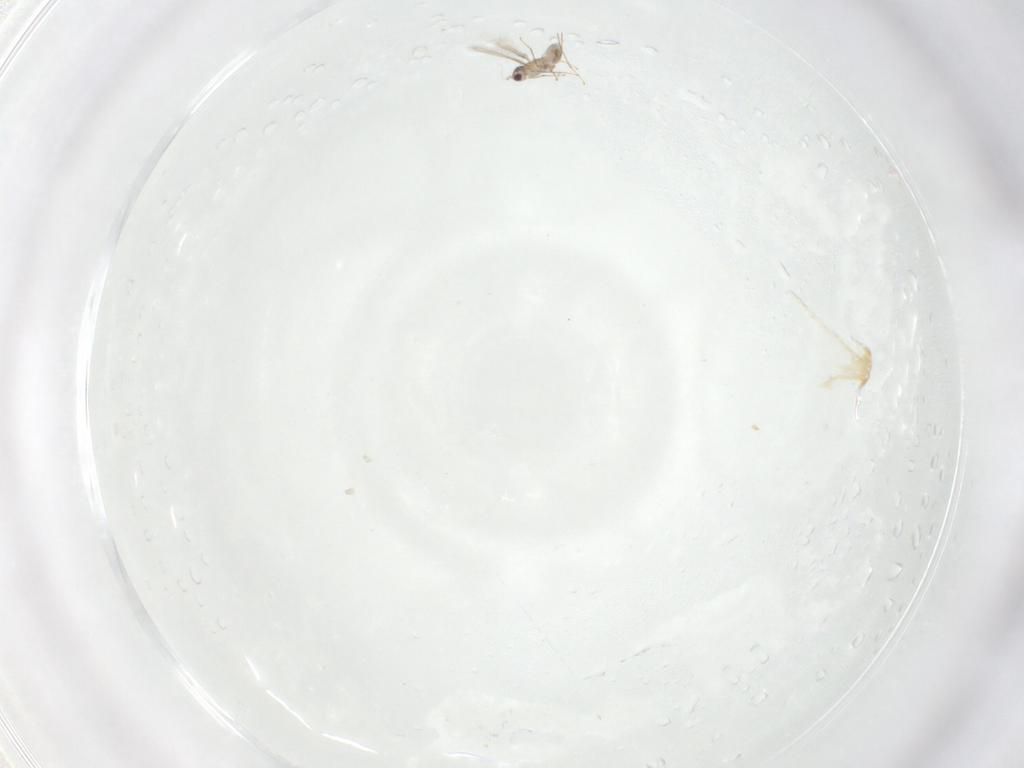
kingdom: Animalia
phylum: Arthropoda
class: Insecta
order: Hymenoptera
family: Mymaridae
